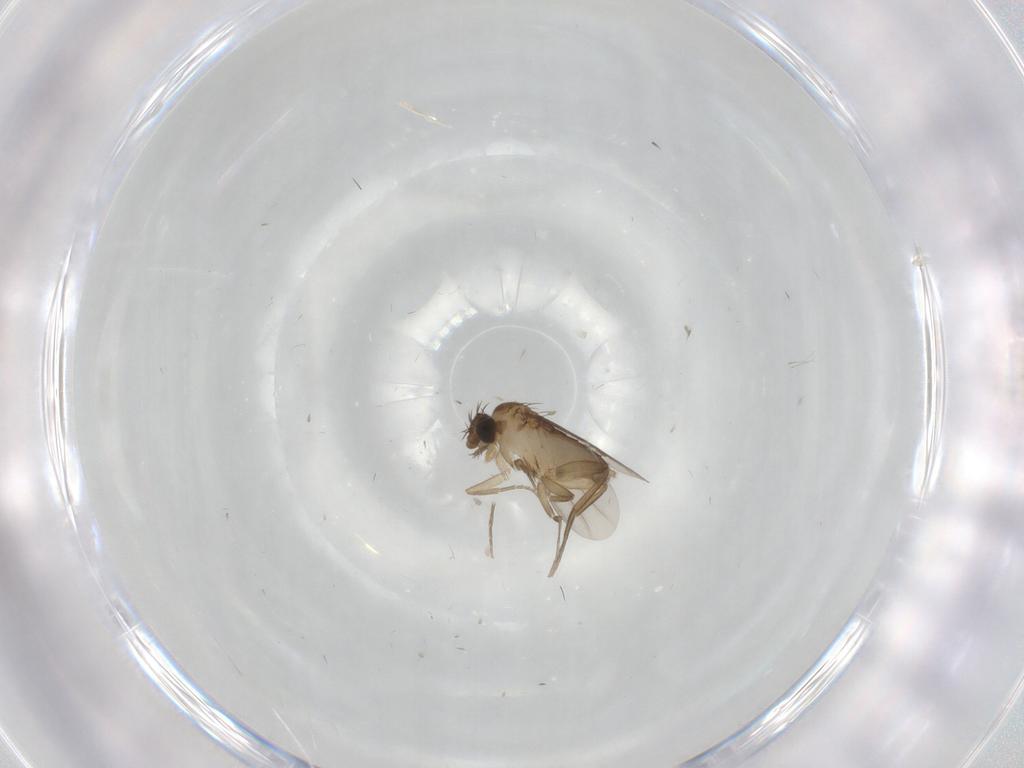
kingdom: Animalia
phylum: Arthropoda
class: Insecta
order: Diptera
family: Phoridae
